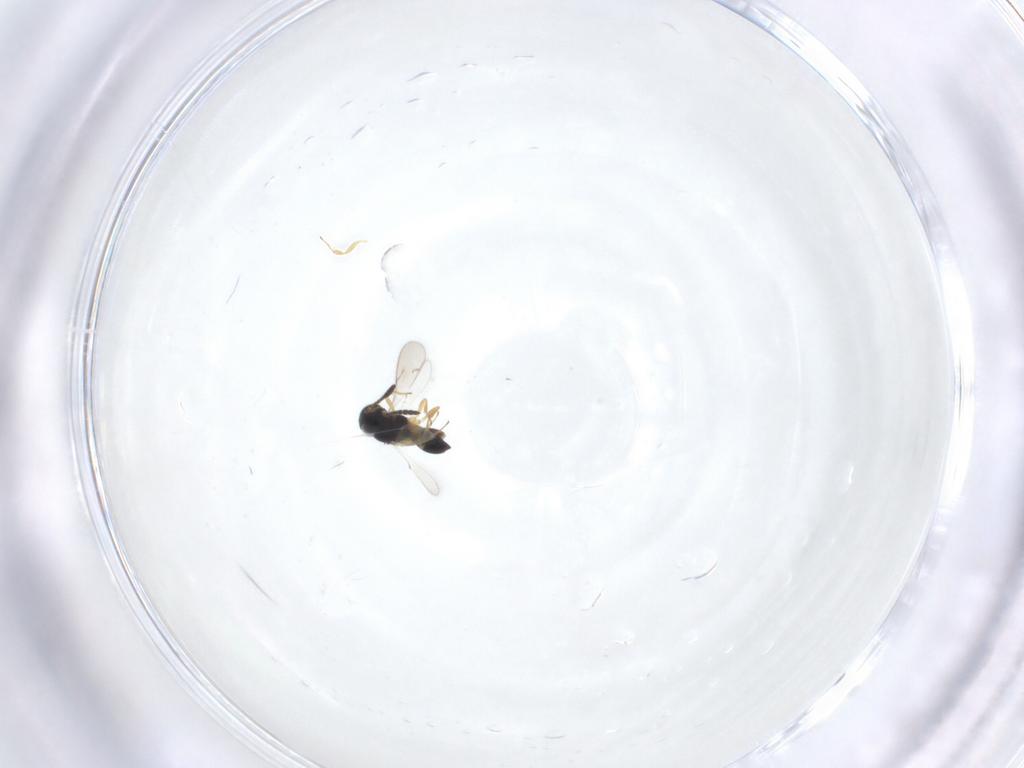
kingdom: Animalia
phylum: Arthropoda
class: Insecta
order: Hymenoptera
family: Scelionidae
